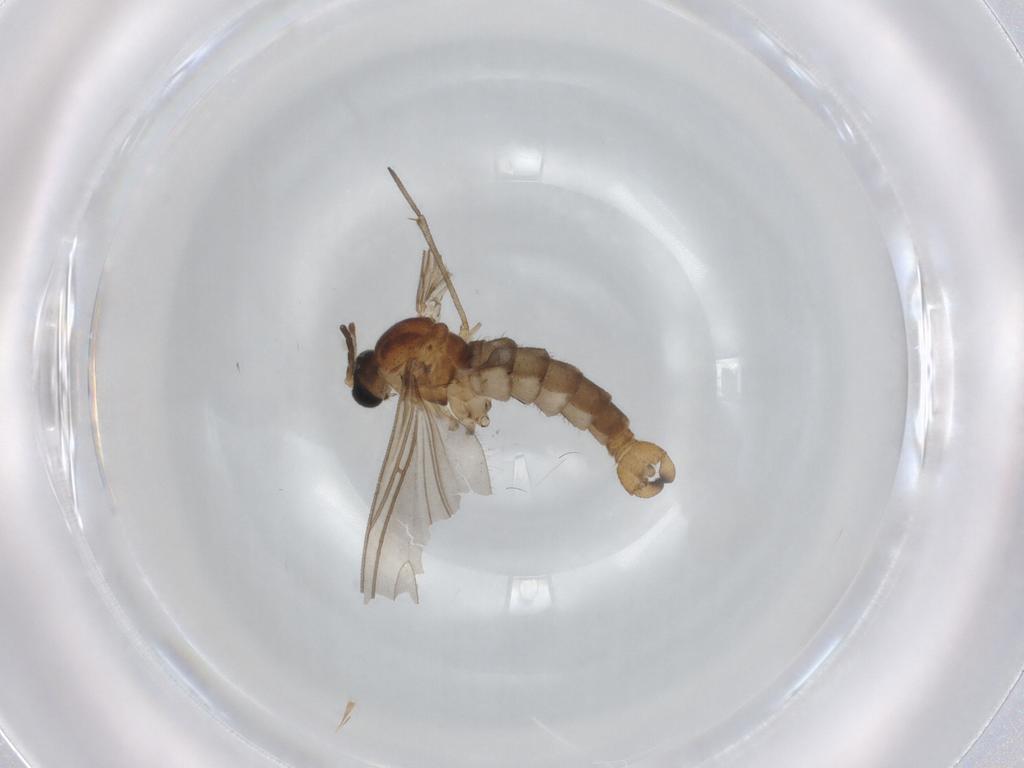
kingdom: Animalia
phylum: Arthropoda
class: Insecta
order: Diptera
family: Sciaridae
